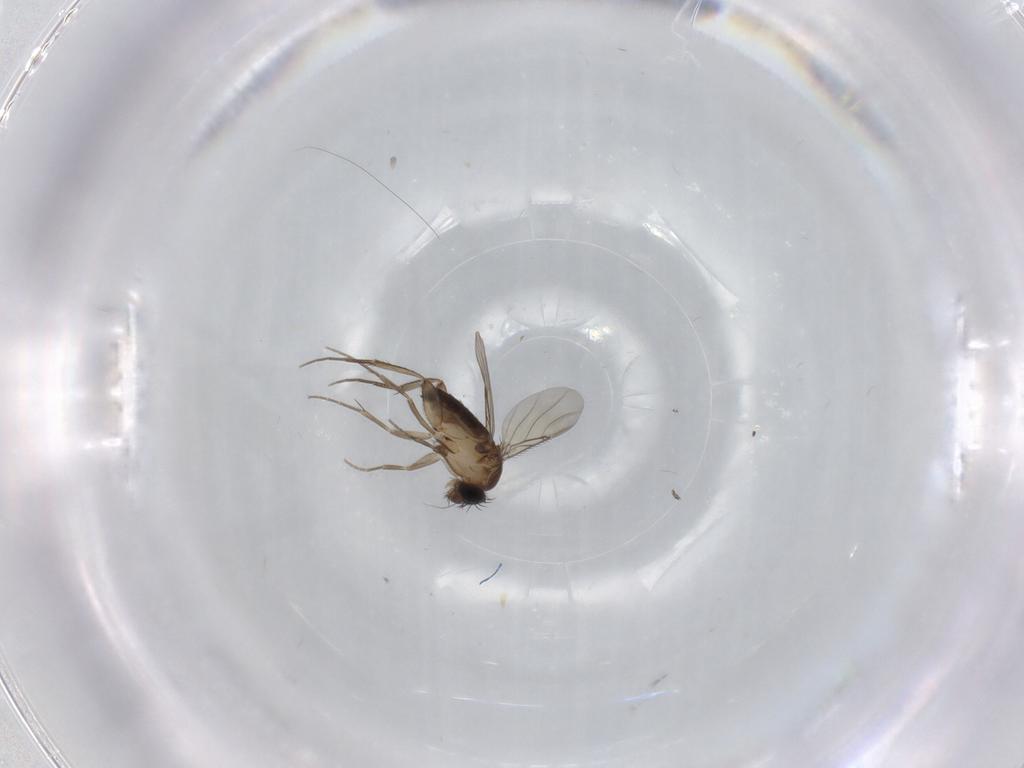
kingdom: Animalia
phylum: Arthropoda
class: Insecta
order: Diptera
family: Phoridae
